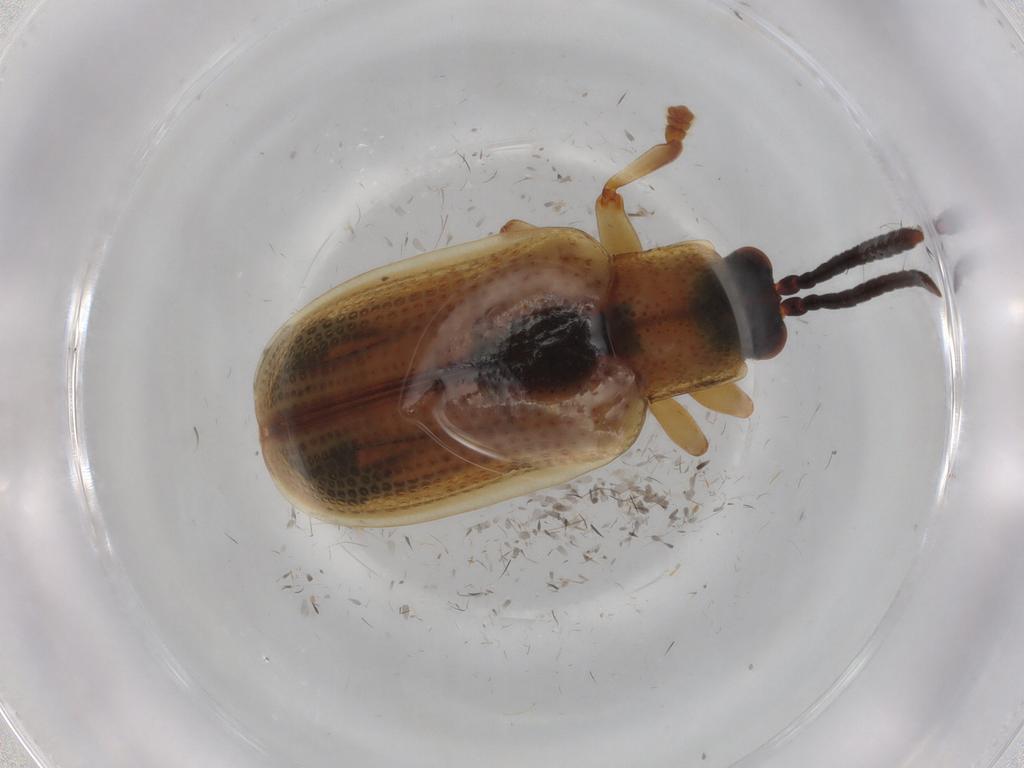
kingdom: Animalia
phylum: Arthropoda
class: Insecta
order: Coleoptera
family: Chrysomelidae
